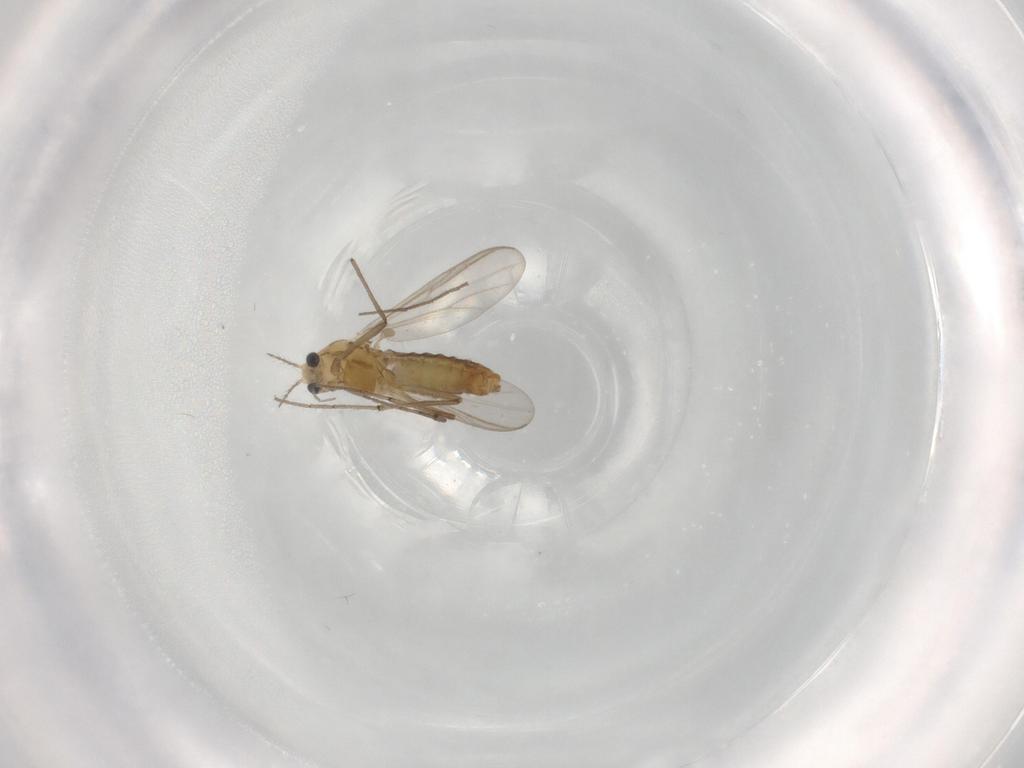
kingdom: Animalia
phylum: Arthropoda
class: Insecta
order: Diptera
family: Chironomidae
